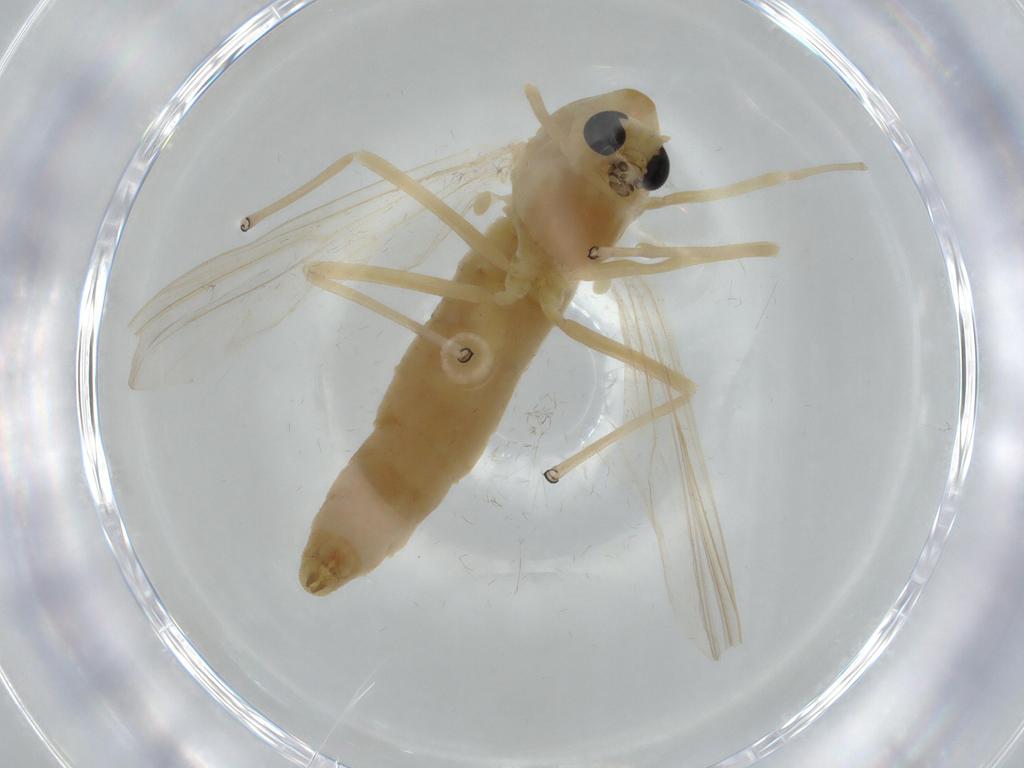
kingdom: Animalia
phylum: Arthropoda
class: Insecta
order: Diptera
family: Chironomidae
